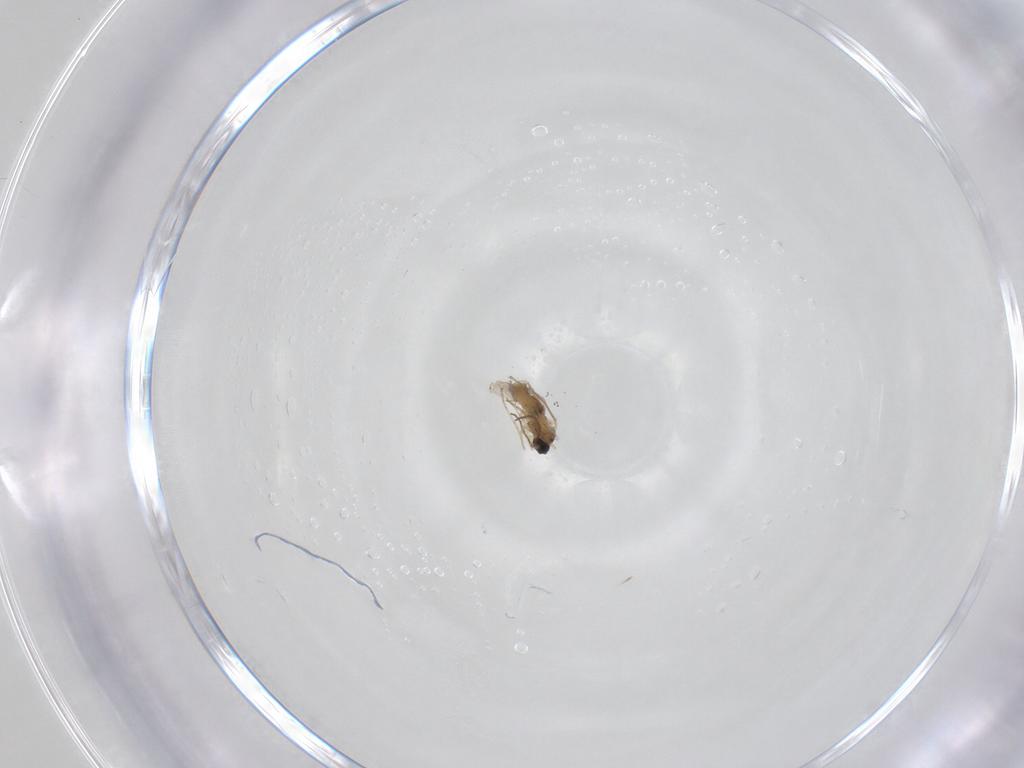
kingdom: Animalia
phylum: Arthropoda
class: Insecta
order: Diptera
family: Cecidomyiidae
